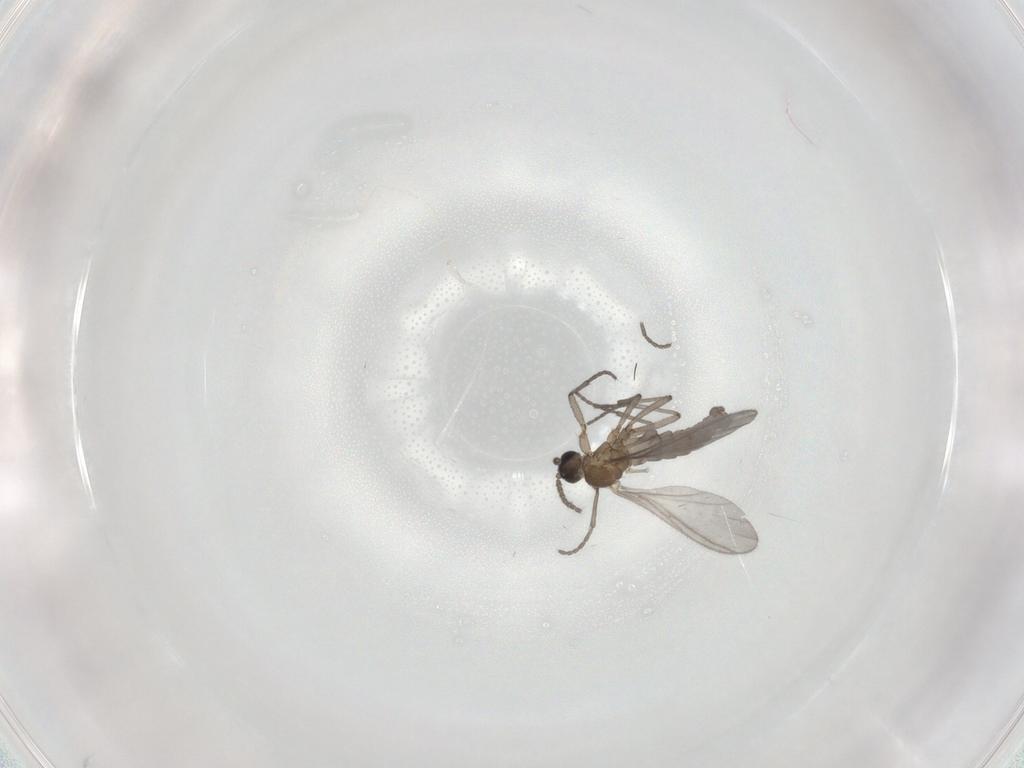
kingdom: Animalia
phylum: Arthropoda
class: Insecta
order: Diptera
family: Sciaridae
